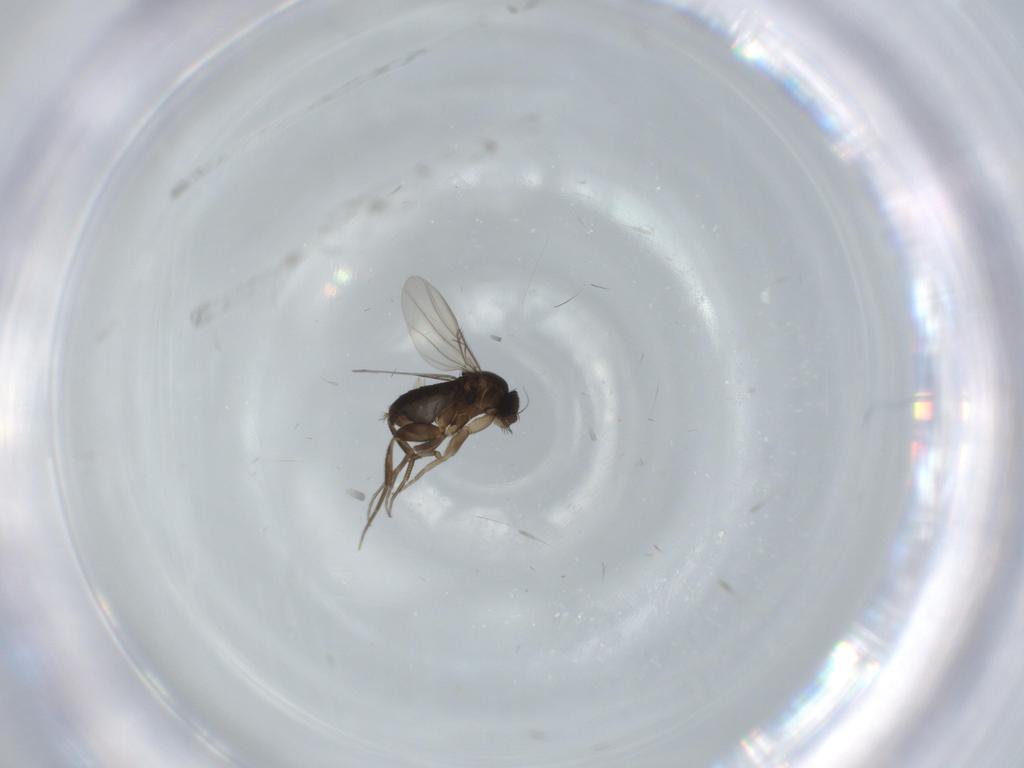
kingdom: Animalia
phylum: Arthropoda
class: Insecta
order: Diptera
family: Phoridae
